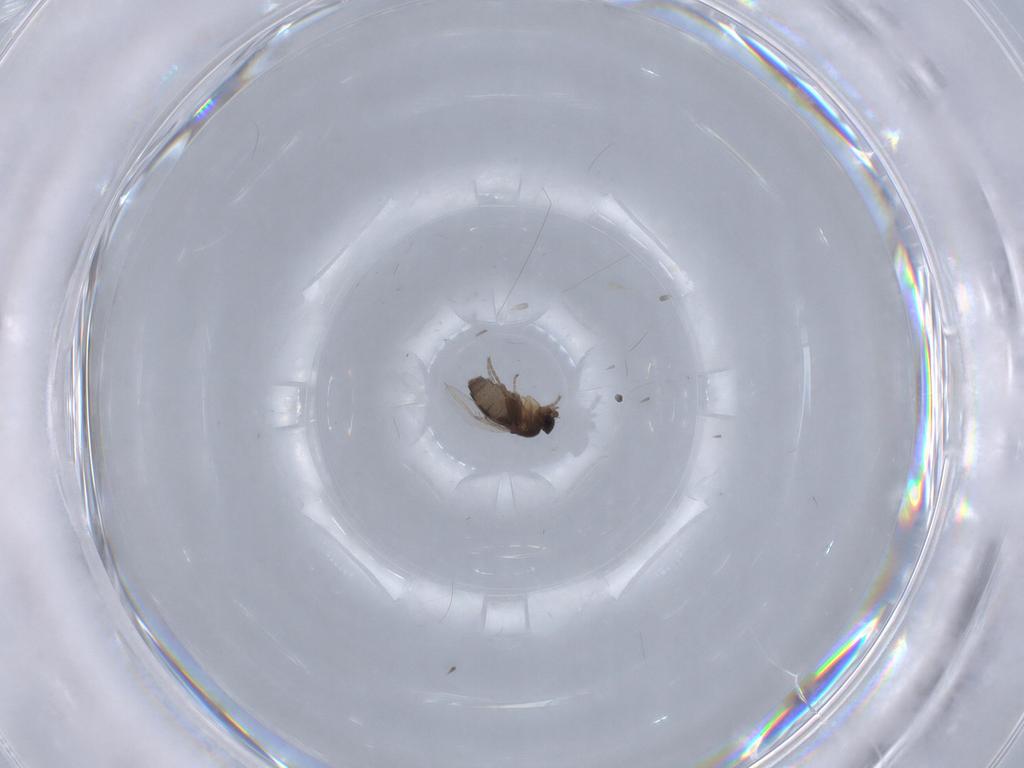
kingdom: Animalia
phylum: Arthropoda
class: Insecta
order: Diptera
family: Phoridae
